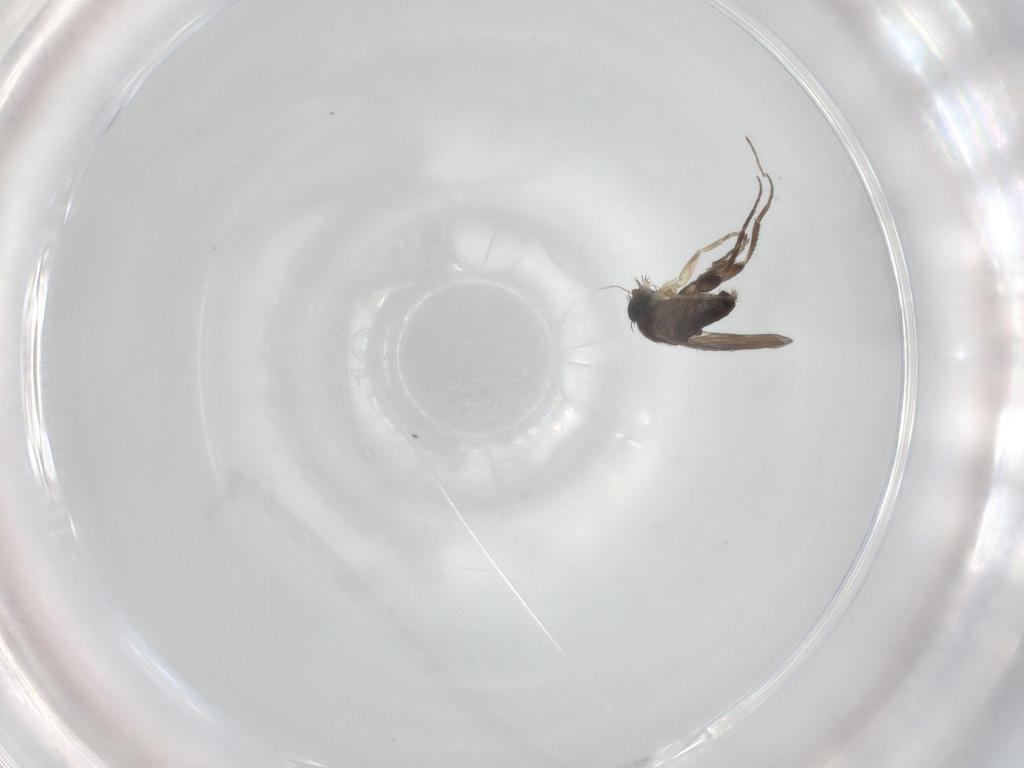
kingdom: Animalia
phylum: Arthropoda
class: Insecta
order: Diptera
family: Phoridae
